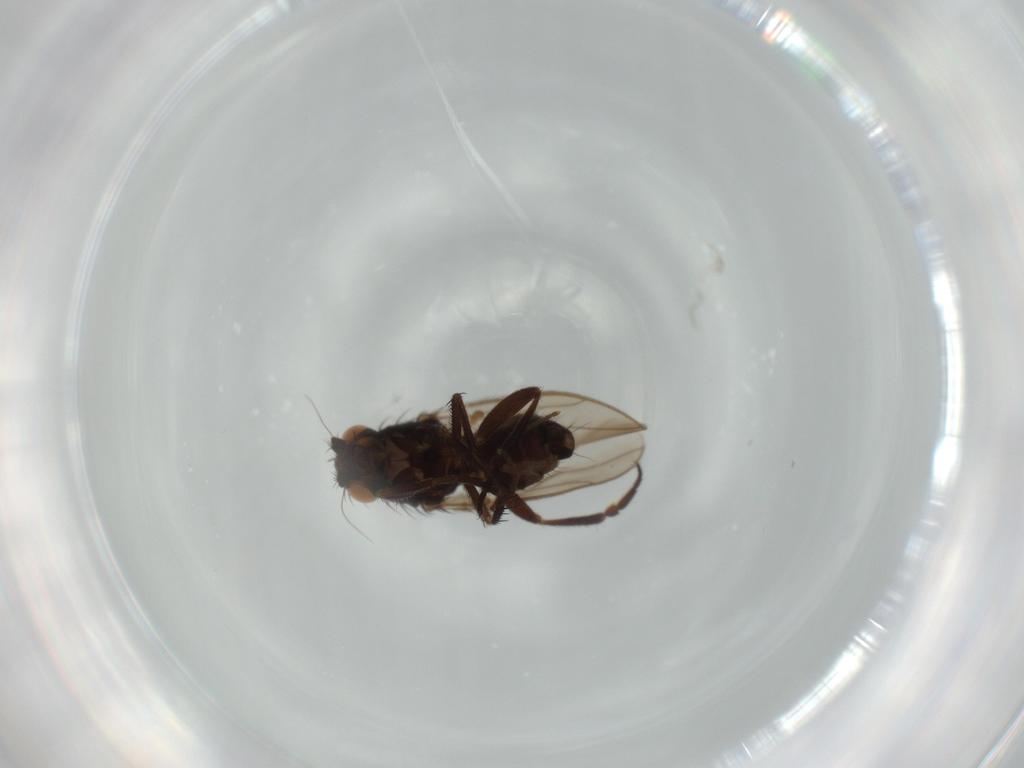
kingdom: Animalia
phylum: Arthropoda
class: Insecta
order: Diptera
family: Sphaeroceridae
